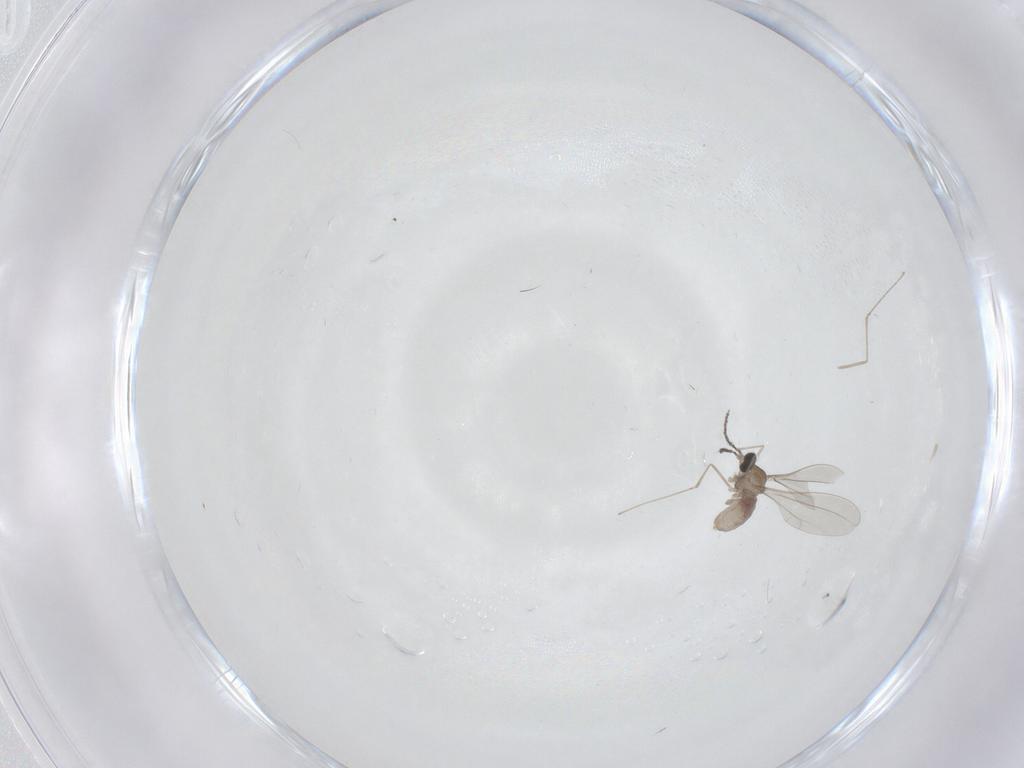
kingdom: Animalia
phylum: Arthropoda
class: Insecta
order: Diptera
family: Cecidomyiidae
